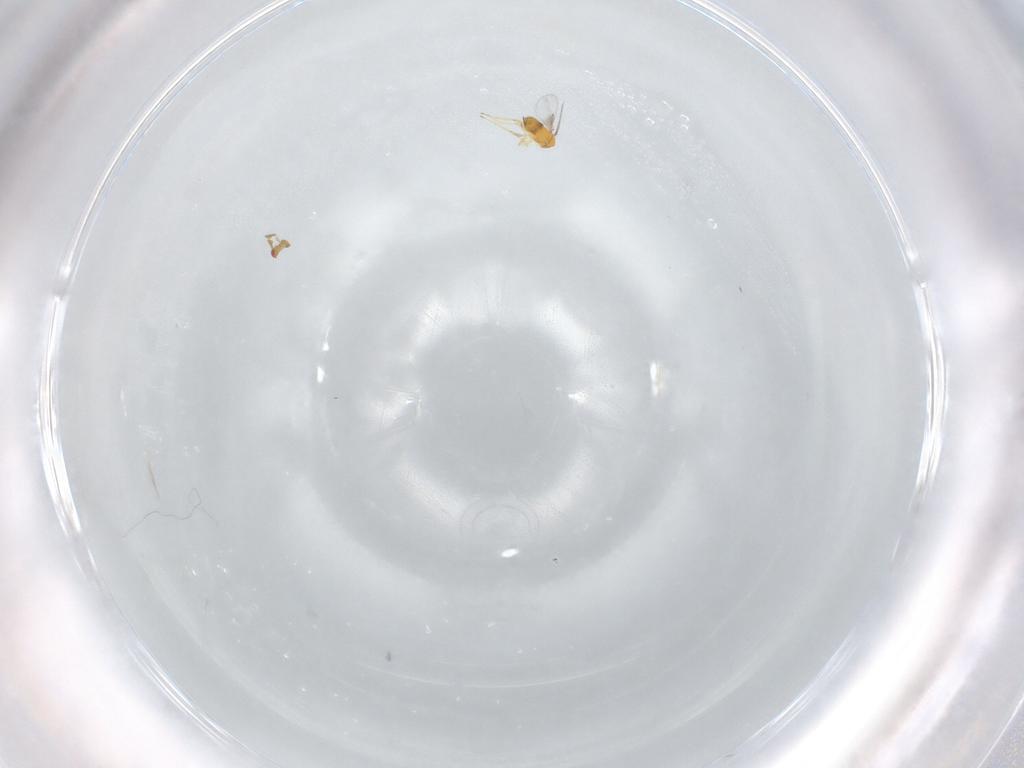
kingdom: Animalia
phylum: Arthropoda
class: Insecta
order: Hymenoptera
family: Trichogrammatidae
